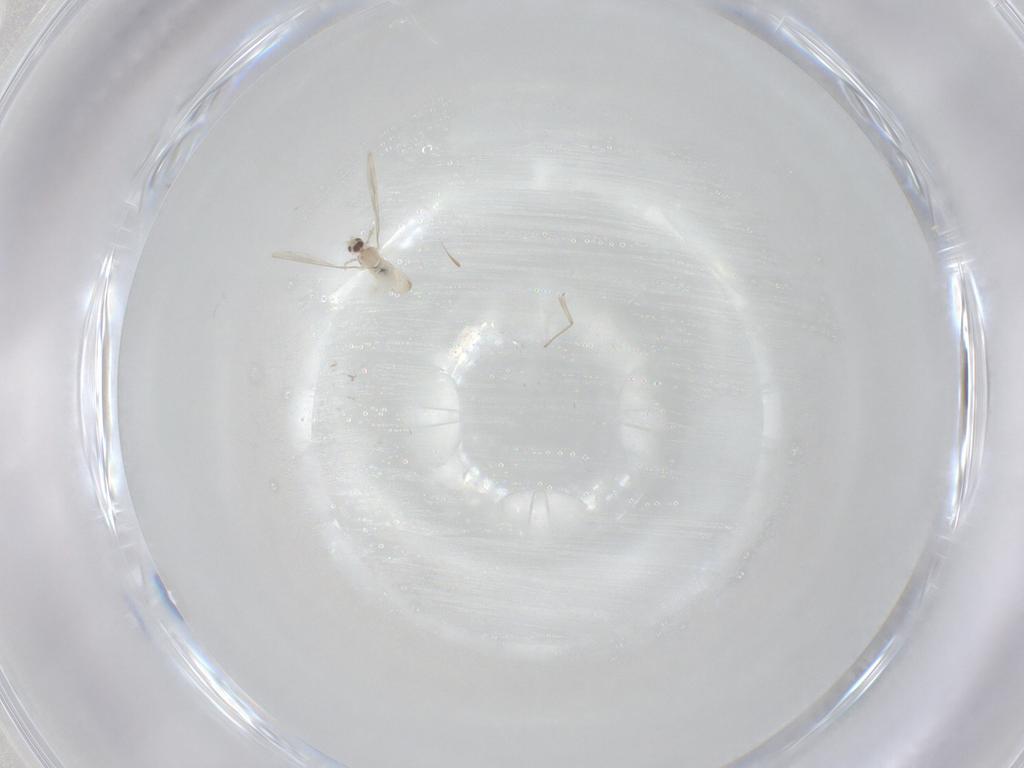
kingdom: Animalia
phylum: Arthropoda
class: Insecta
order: Diptera
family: Cecidomyiidae
